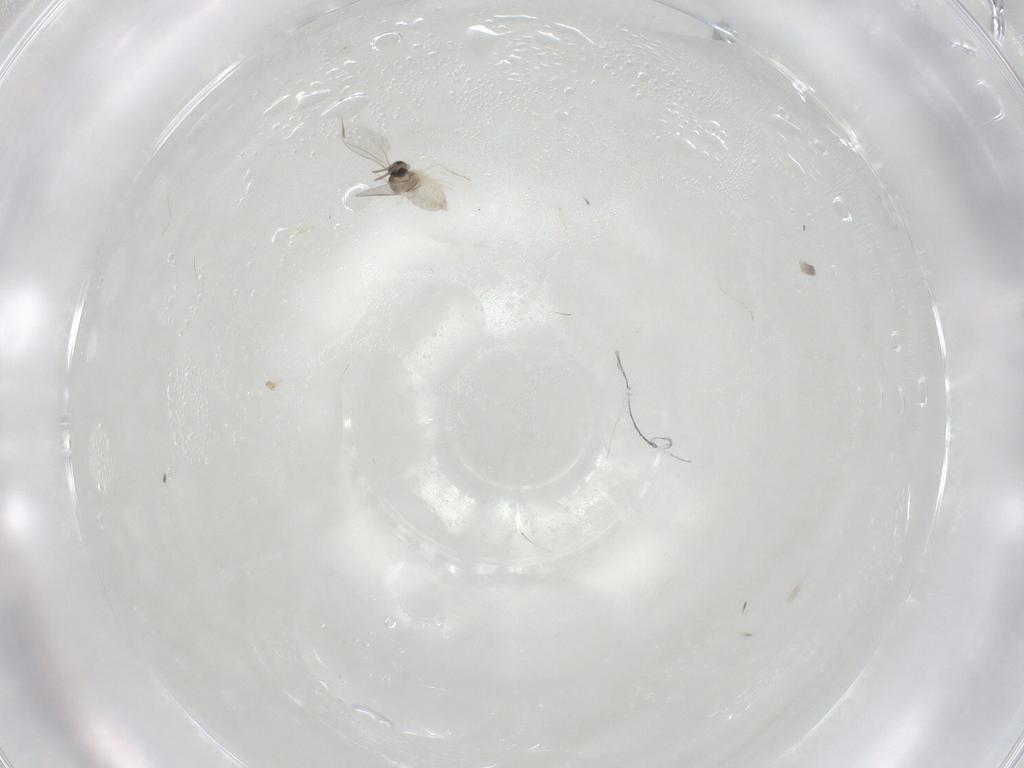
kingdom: Animalia
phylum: Arthropoda
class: Insecta
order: Diptera
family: Cecidomyiidae
